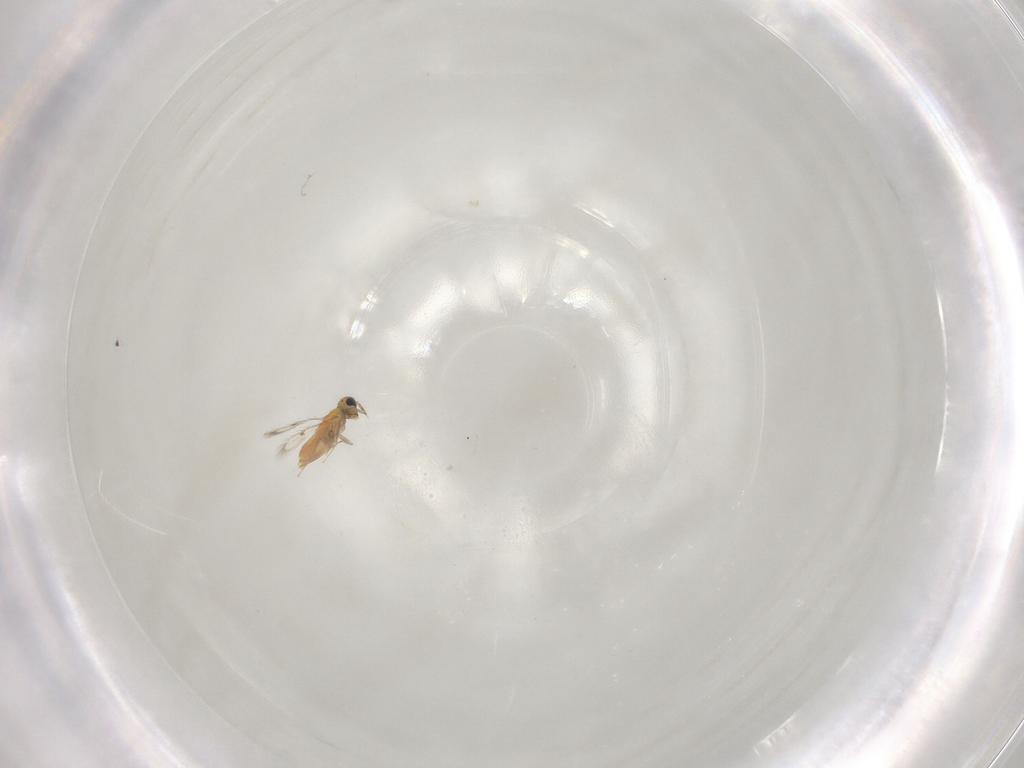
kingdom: Animalia
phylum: Arthropoda
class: Insecta
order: Hymenoptera
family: Trichogrammatidae
